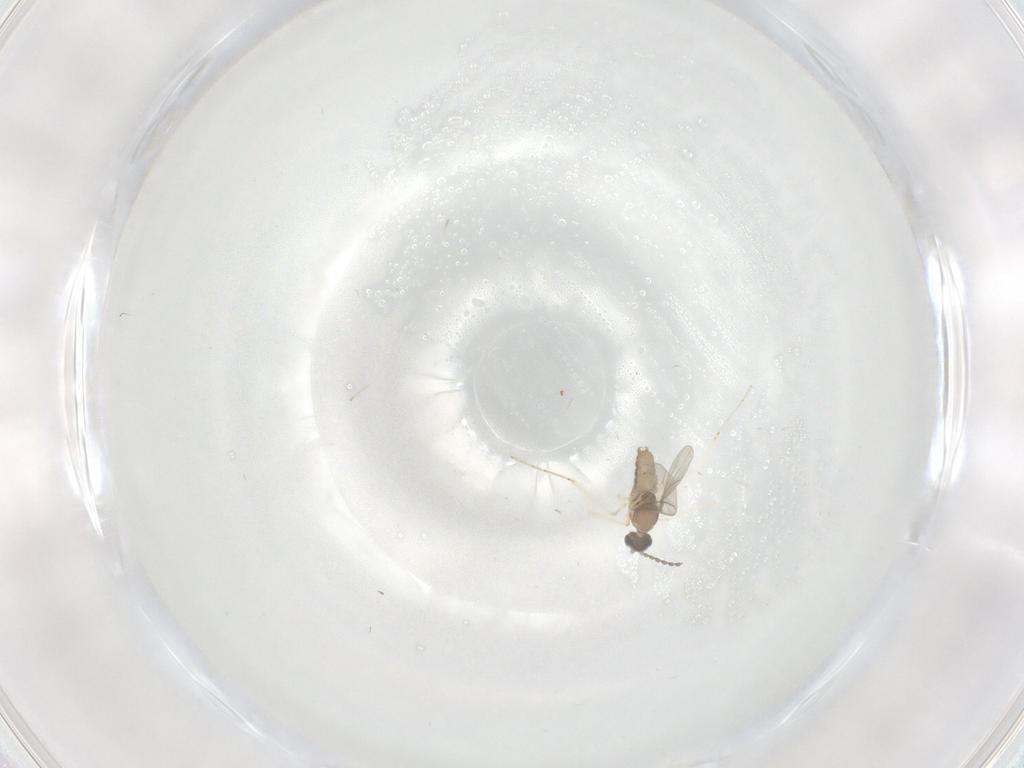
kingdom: Animalia
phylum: Arthropoda
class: Insecta
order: Diptera
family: Cecidomyiidae
